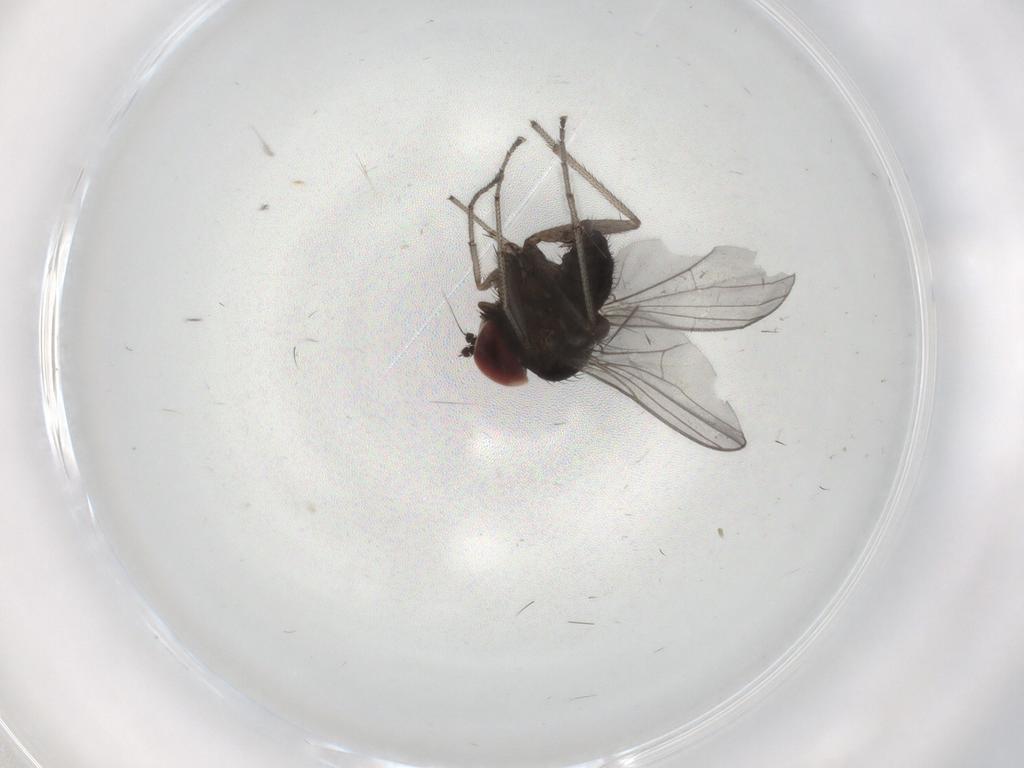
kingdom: Animalia
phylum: Arthropoda
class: Insecta
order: Diptera
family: Dolichopodidae
